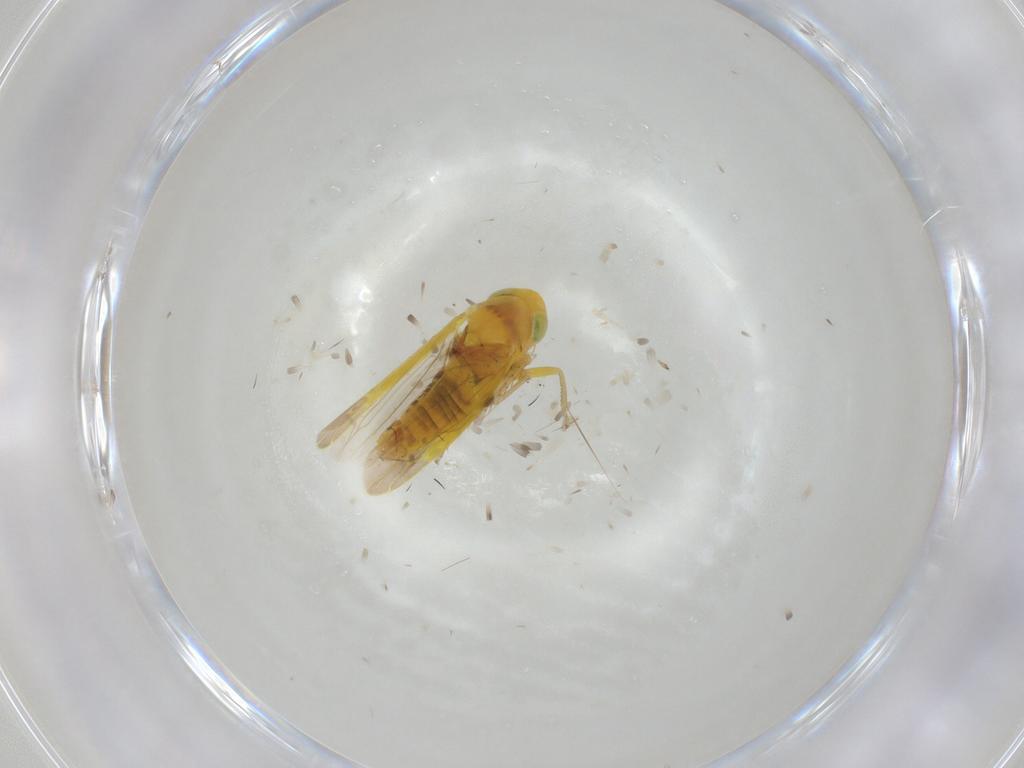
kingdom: Animalia
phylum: Arthropoda
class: Insecta
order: Hemiptera
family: Cicadellidae
